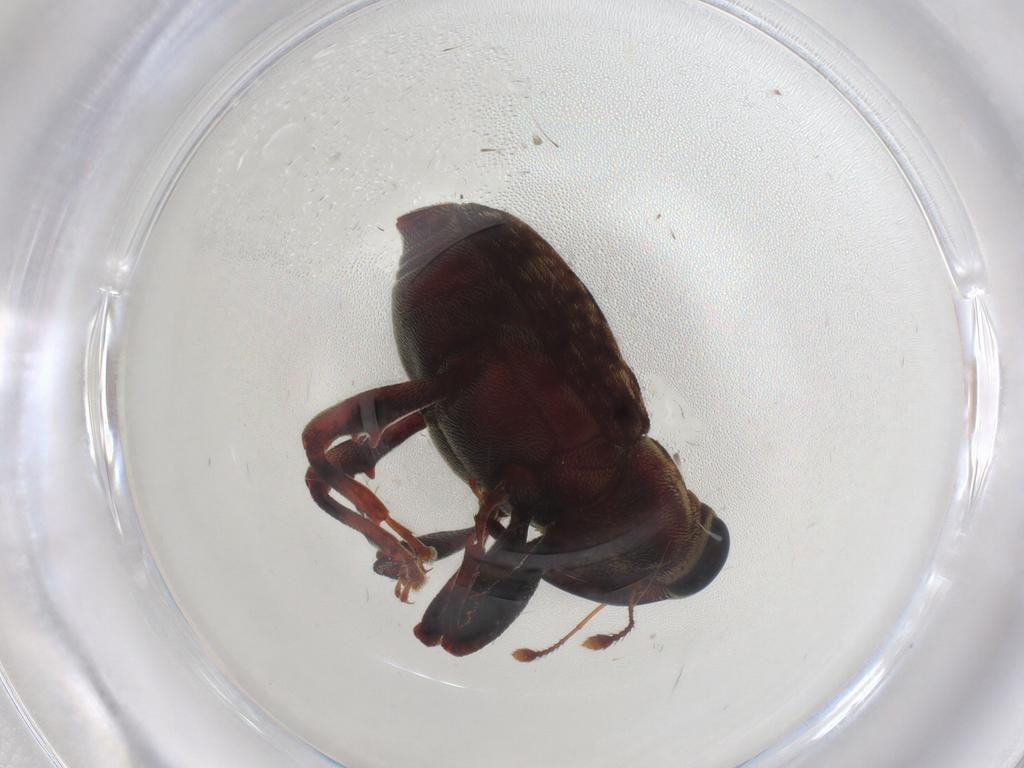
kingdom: Animalia
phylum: Arthropoda
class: Insecta
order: Coleoptera
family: Curculionidae
